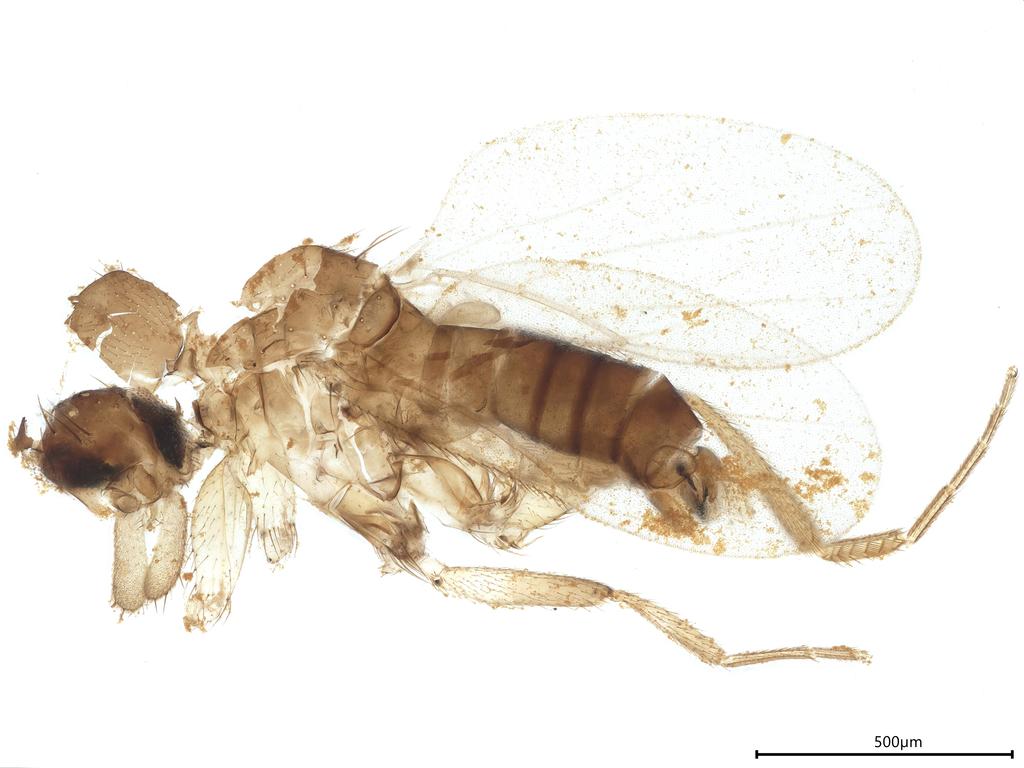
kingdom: Animalia
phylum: Arthropoda
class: Insecta
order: Diptera
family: Phoridae
